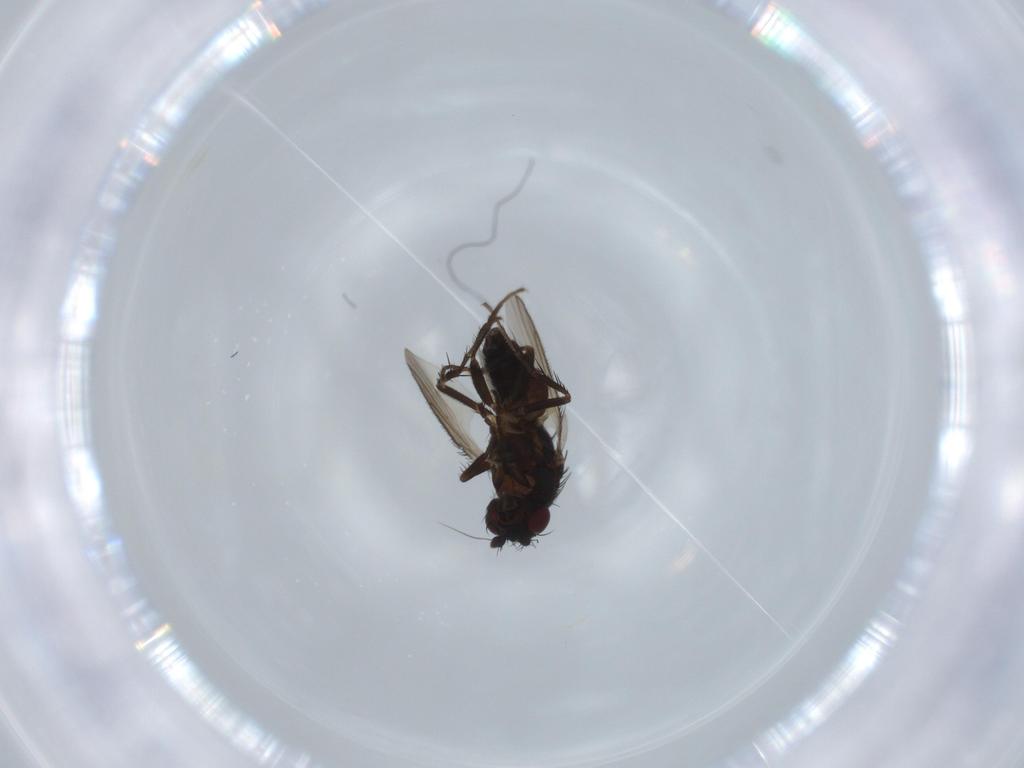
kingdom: Animalia
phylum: Arthropoda
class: Insecta
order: Diptera
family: Sphaeroceridae
